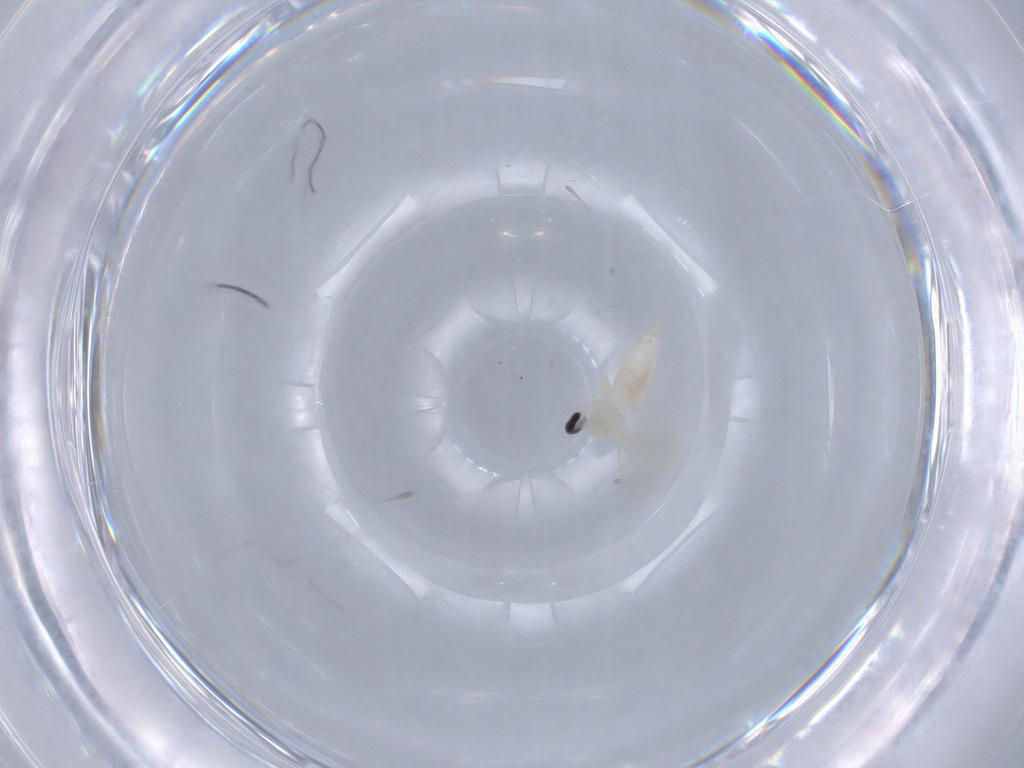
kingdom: Animalia
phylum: Arthropoda
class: Insecta
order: Diptera
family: Cecidomyiidae
